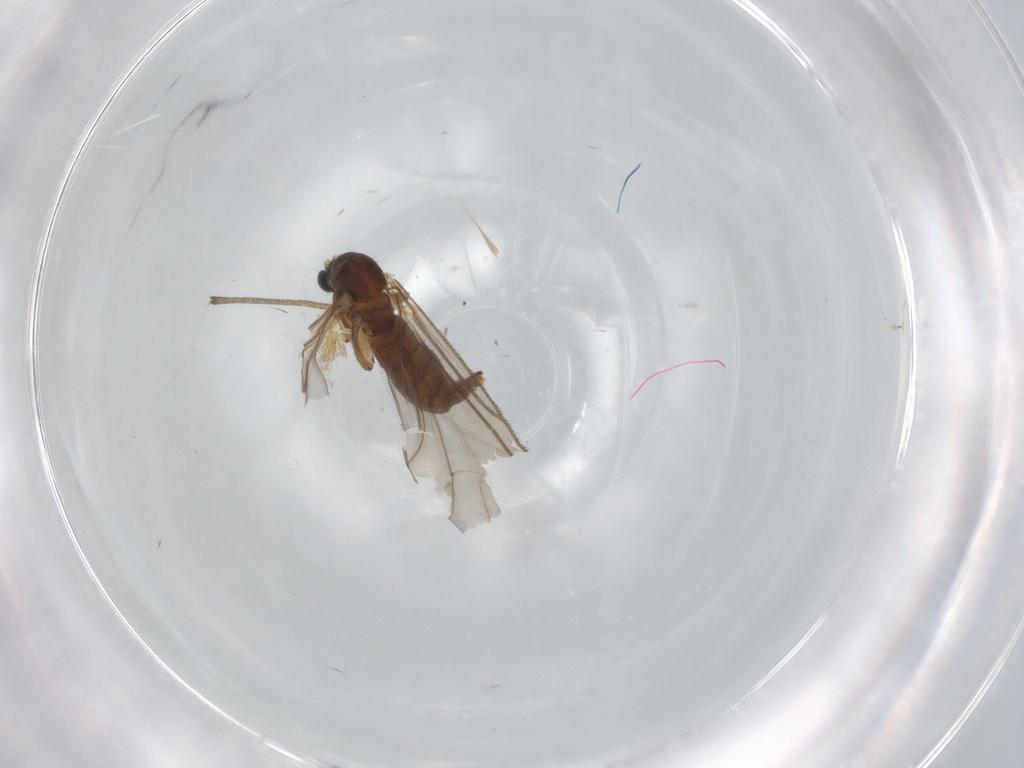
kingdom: Animalia
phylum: Arthropoda
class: Insecta
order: Diptera
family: Sciaridae
